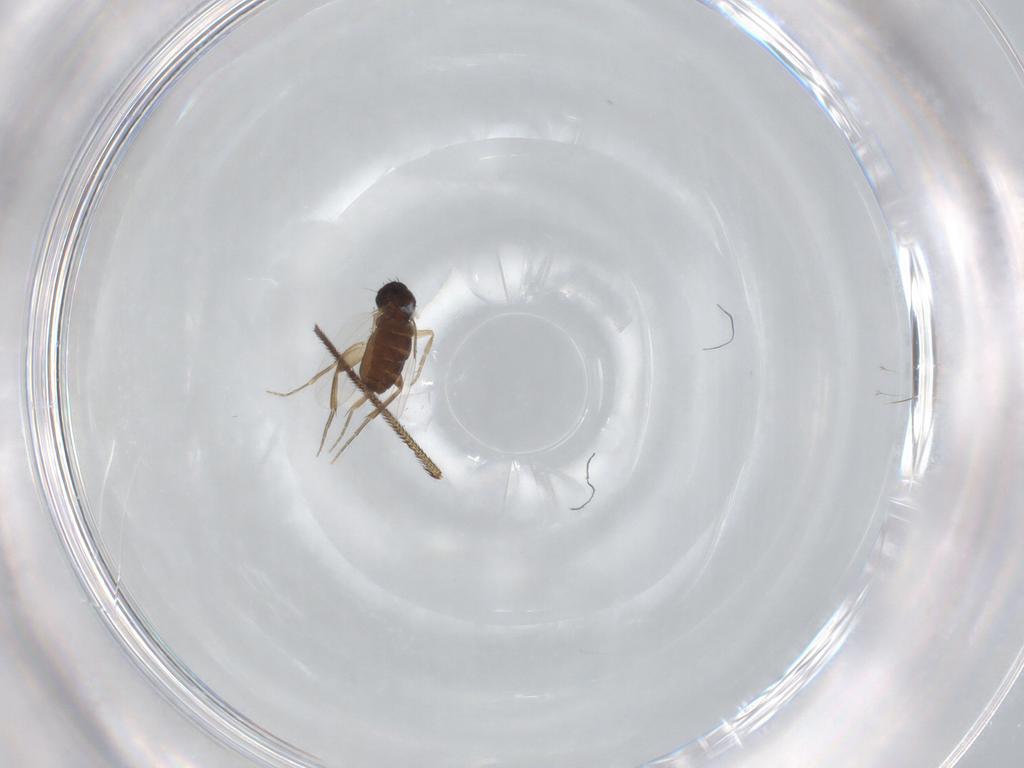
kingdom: Animalia
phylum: Arthropoda
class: Insecta
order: Diptera
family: Phoridae
